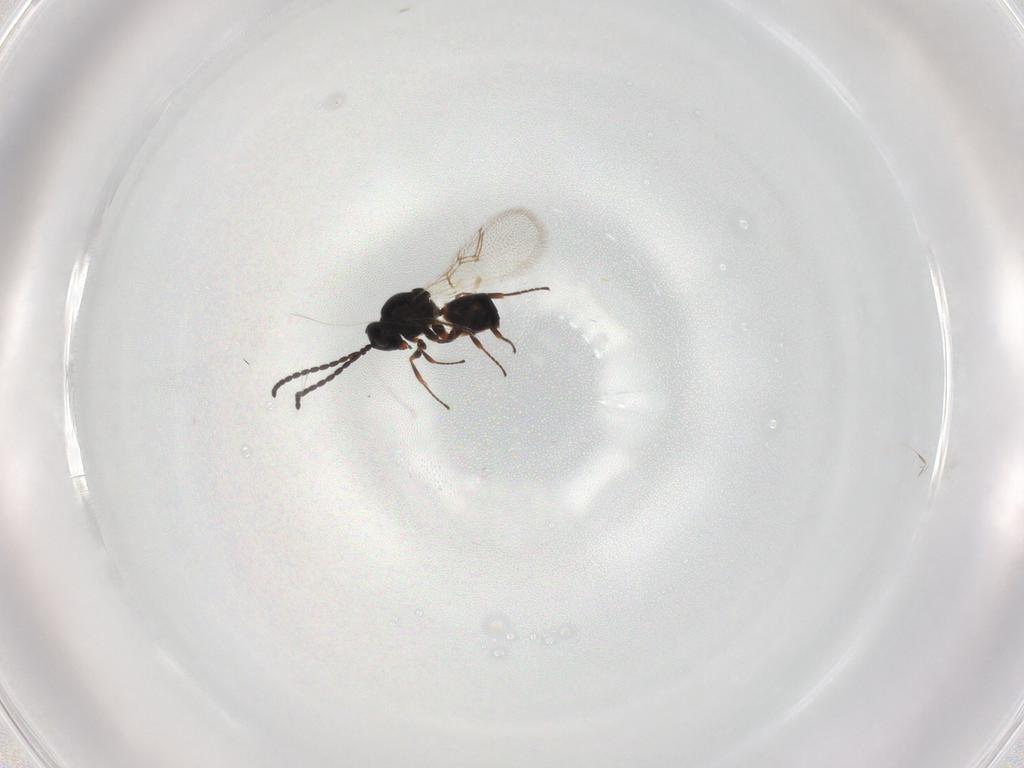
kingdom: Animalia
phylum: Arthropoda
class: Insecta
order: Hymenoptera
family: Figitidae
